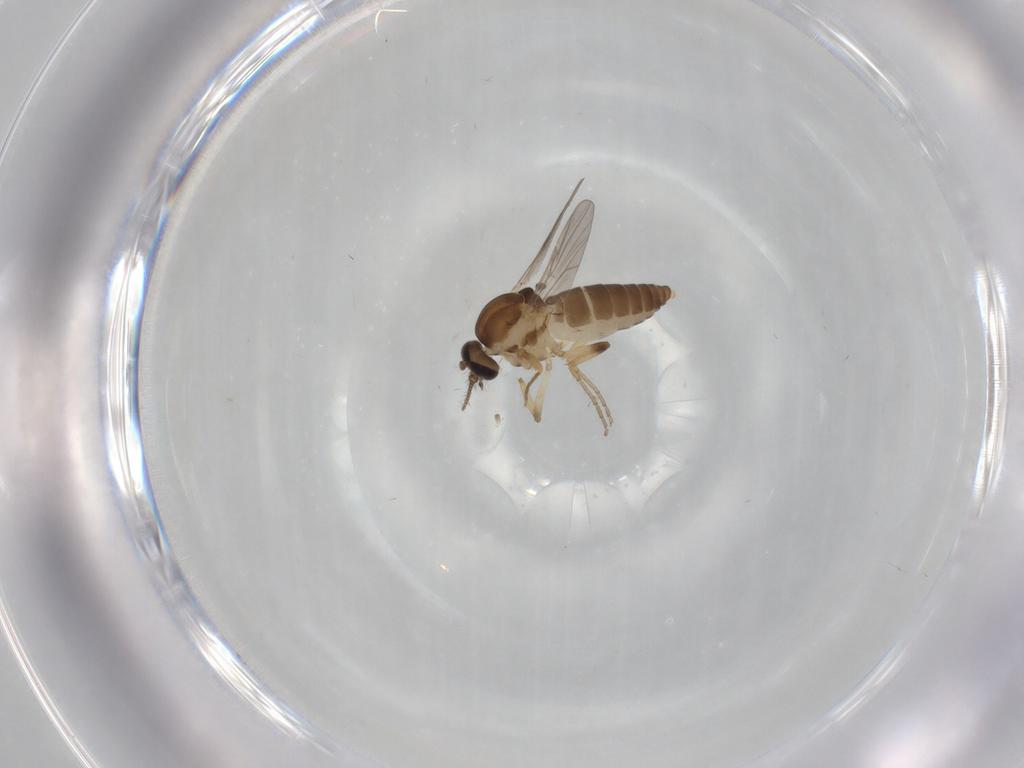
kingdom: Animalia
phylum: Arthropoda
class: Insecta
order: Diptera
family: Ceratopogonidae
